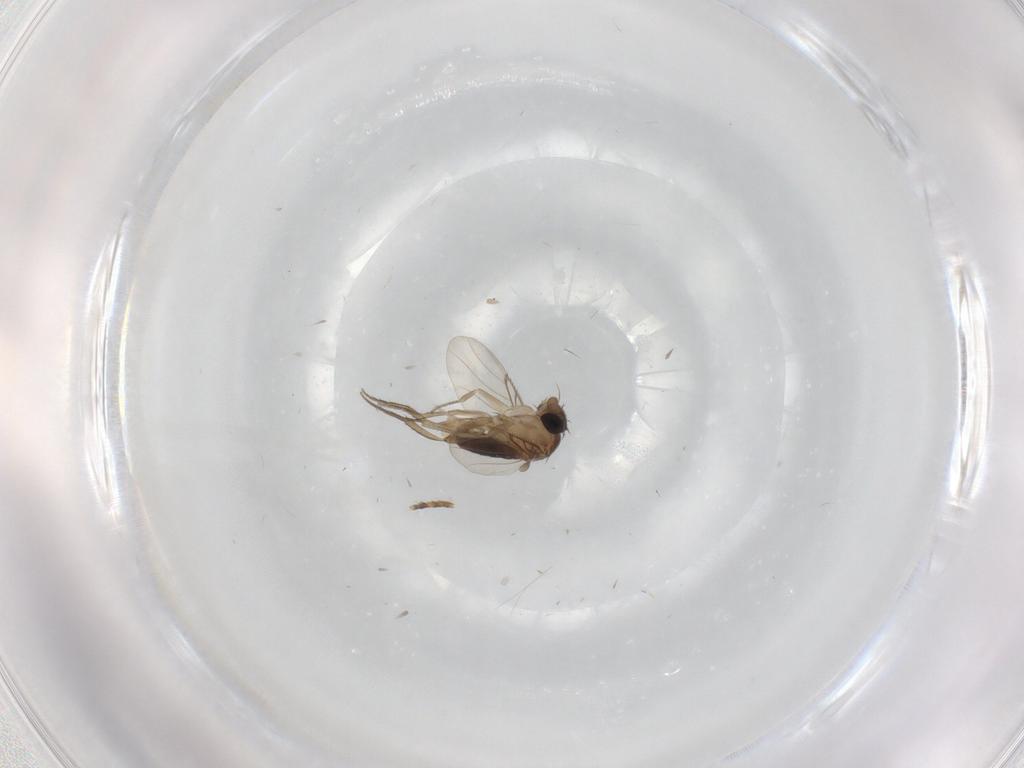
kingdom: Animalia
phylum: Arthropoda
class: Insecta
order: Diptera
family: Phoridae
